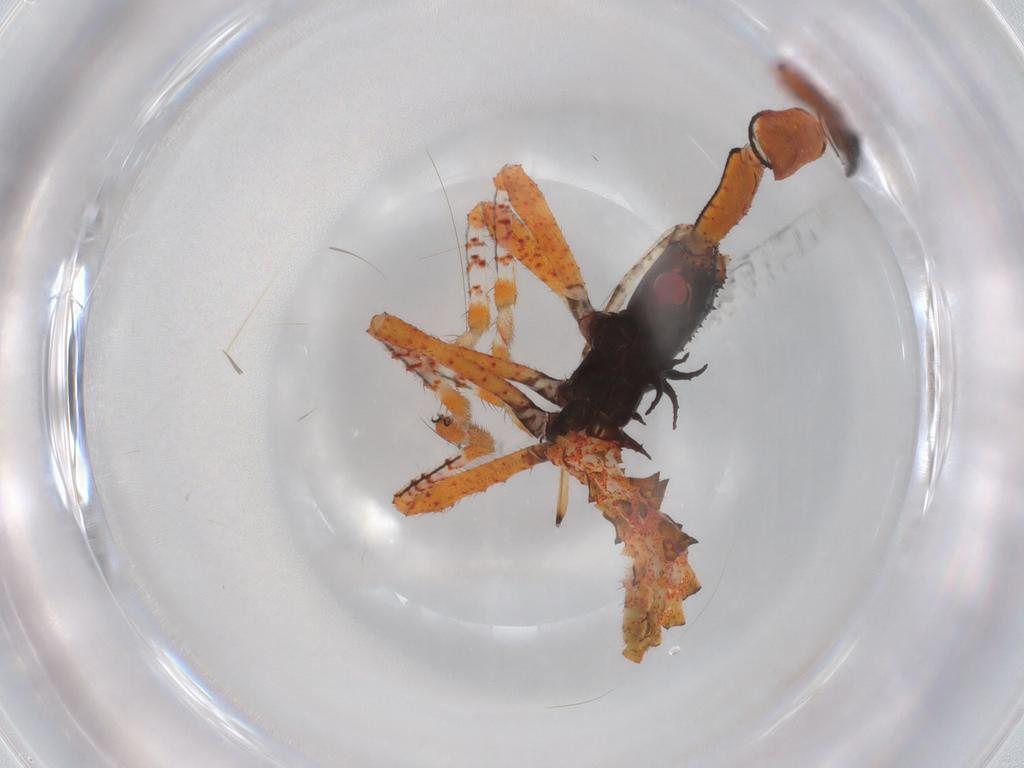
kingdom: Animalia
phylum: Arthropoda
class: Insecta
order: Hemiptera
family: Coreidae
